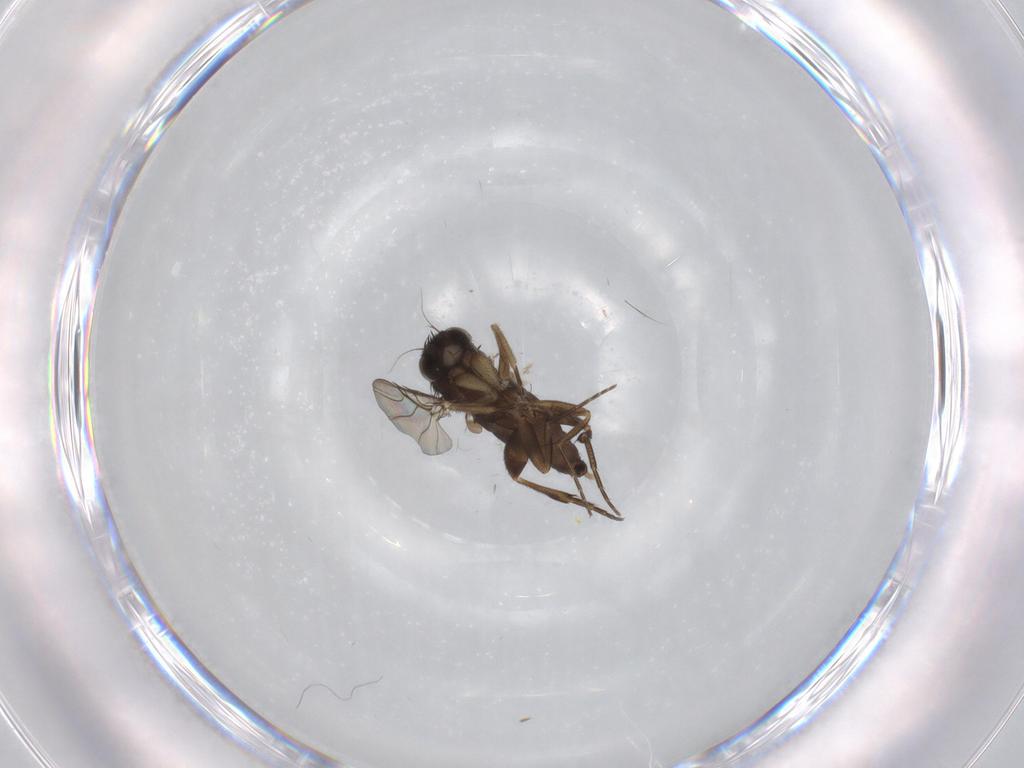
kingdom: Animalia
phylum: Arthropoda
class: Insecta
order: Diptera
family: Phoridae
